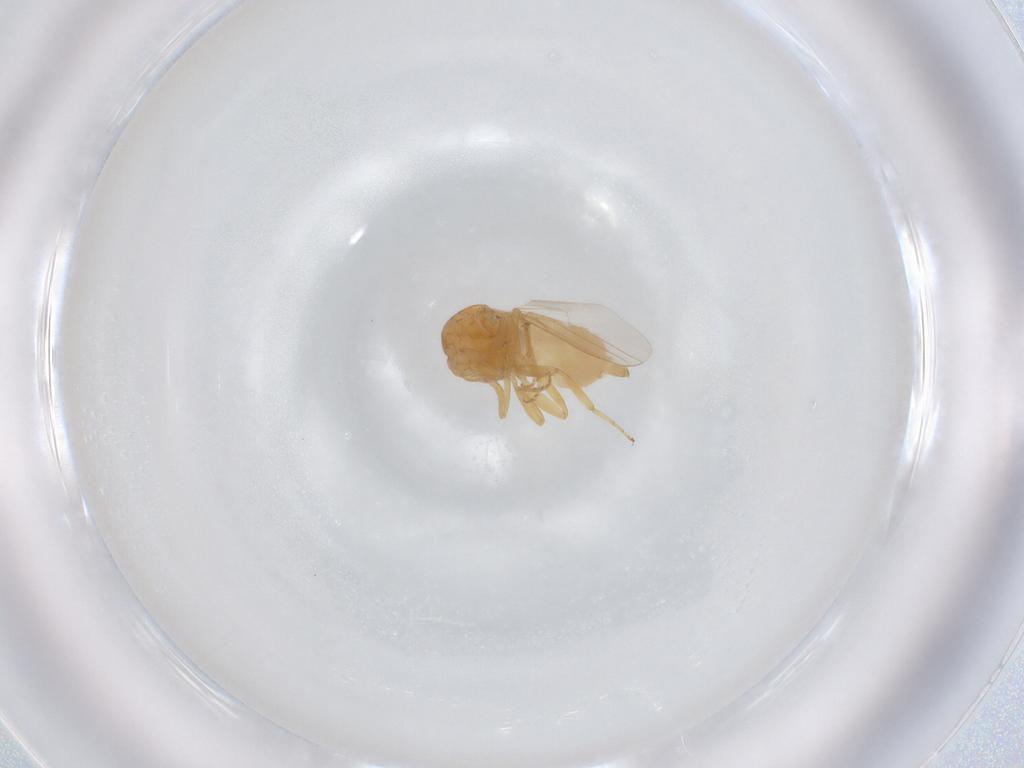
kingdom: Animalia
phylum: Arthropoda
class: Insecta
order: Diptera
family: Chloropidae
